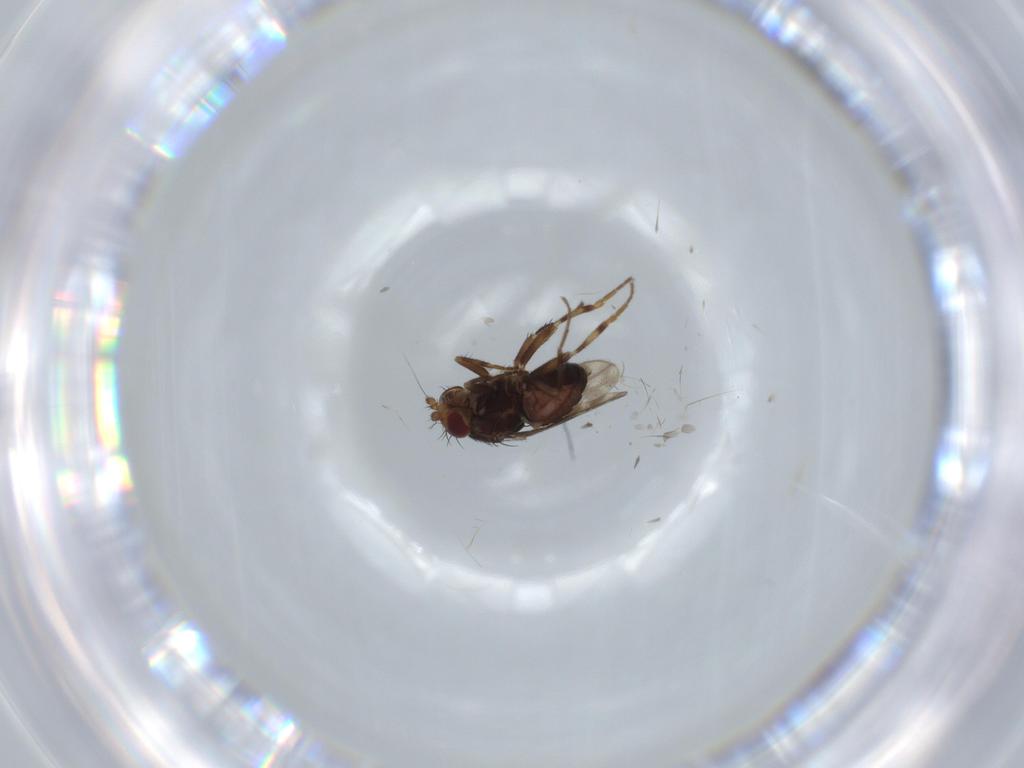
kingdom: Animalia
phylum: Arthropoda
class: Insecta
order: Diptera
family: Sphaeroceridae
